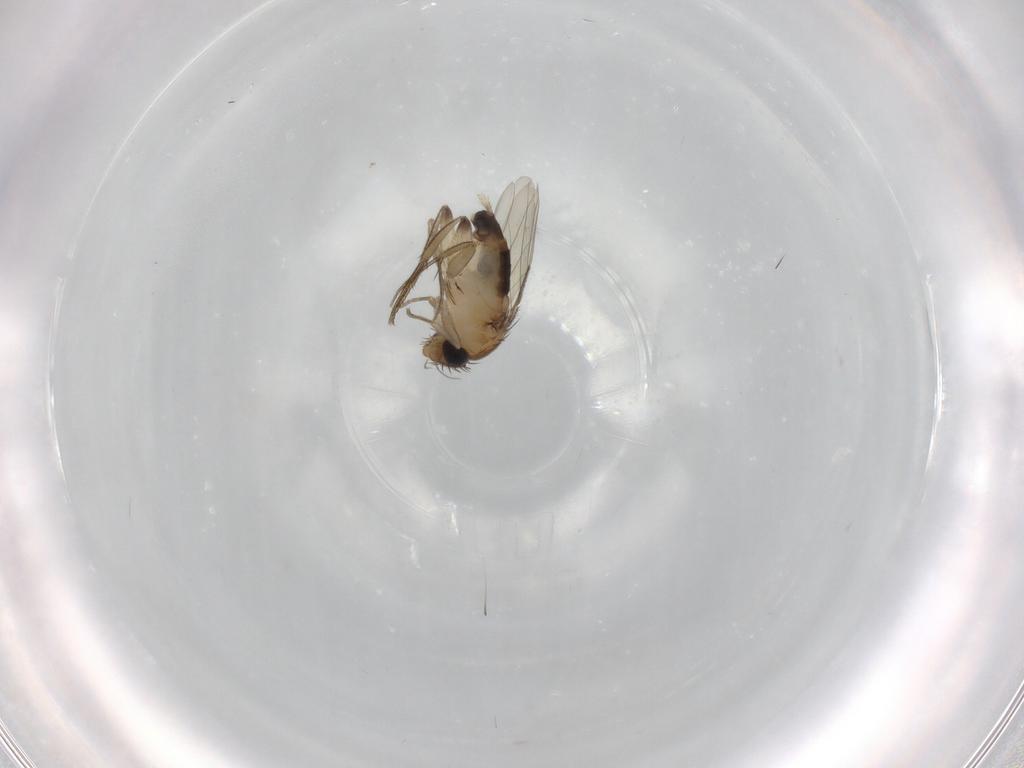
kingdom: Animalia
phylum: Arthropoda
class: Insecta
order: Diptera
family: Phoridae
